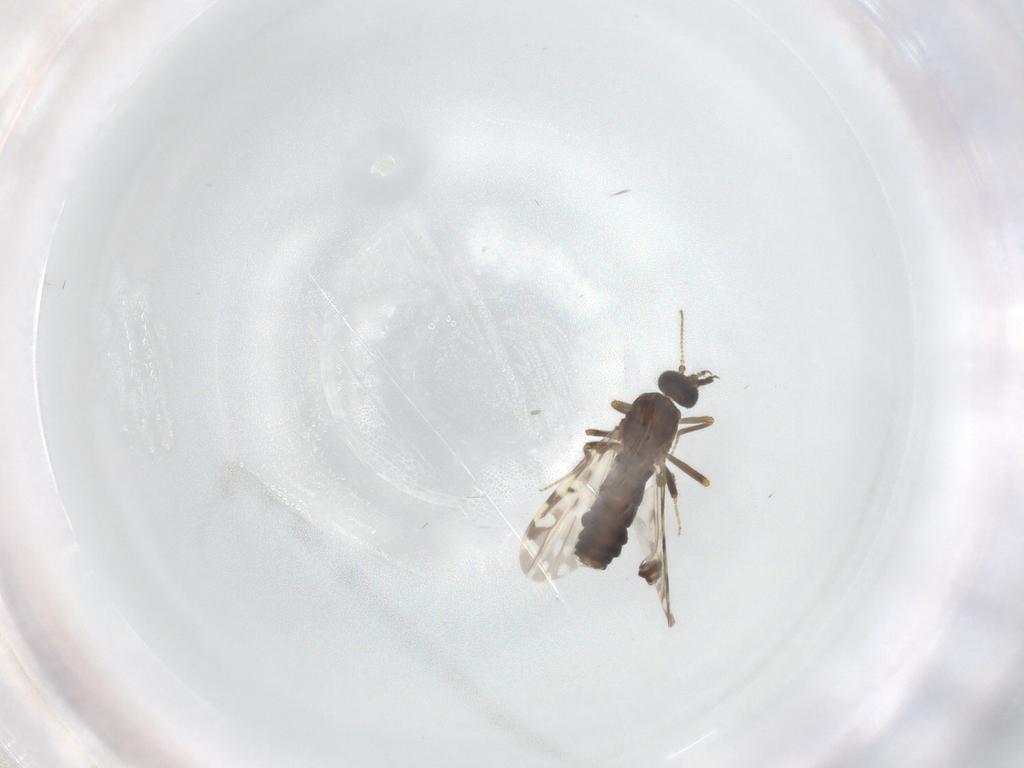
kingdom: Animalia
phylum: Arthropoda
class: Insecta
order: Diptera
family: Ceratopogonidae
